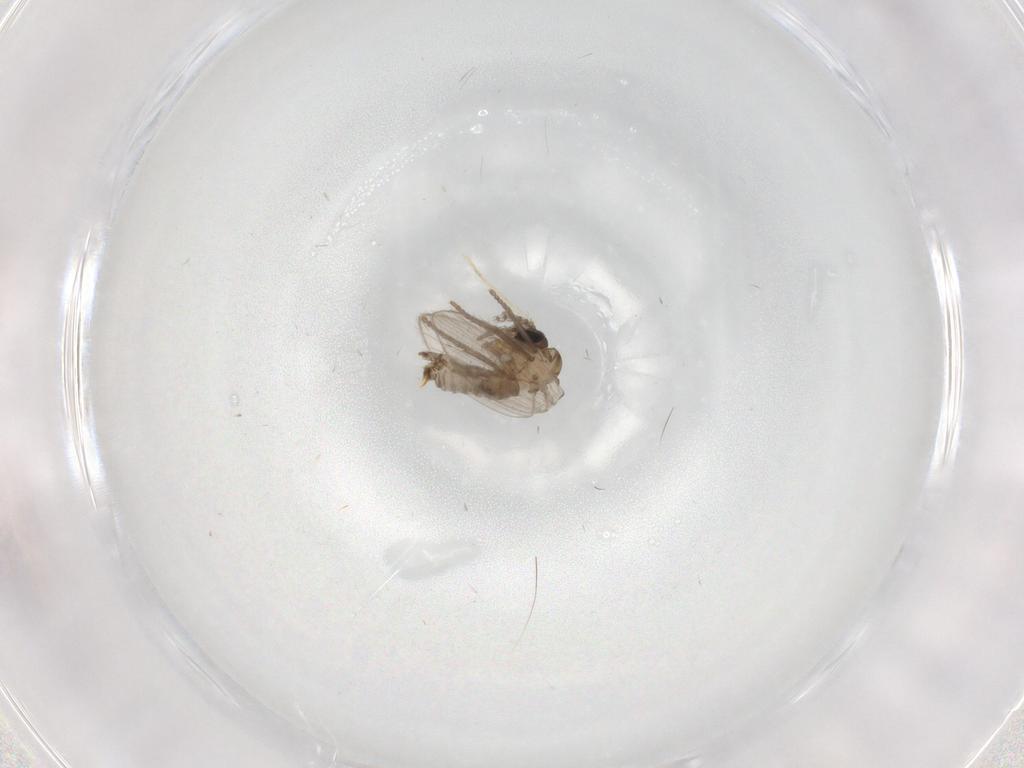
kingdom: Animalia
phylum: Arthropoda
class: Insecta
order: Diptera
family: Psychodidae
